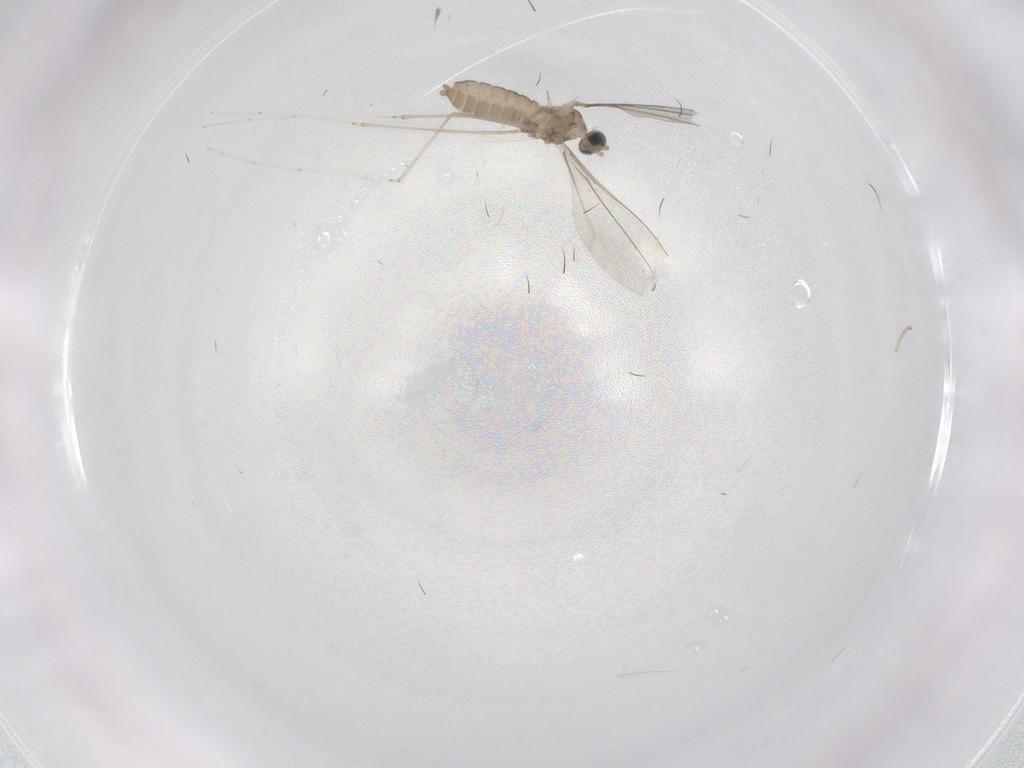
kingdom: Animalia
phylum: Arthropoda
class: Insecta
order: Diptera
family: Cecidomyiidae
